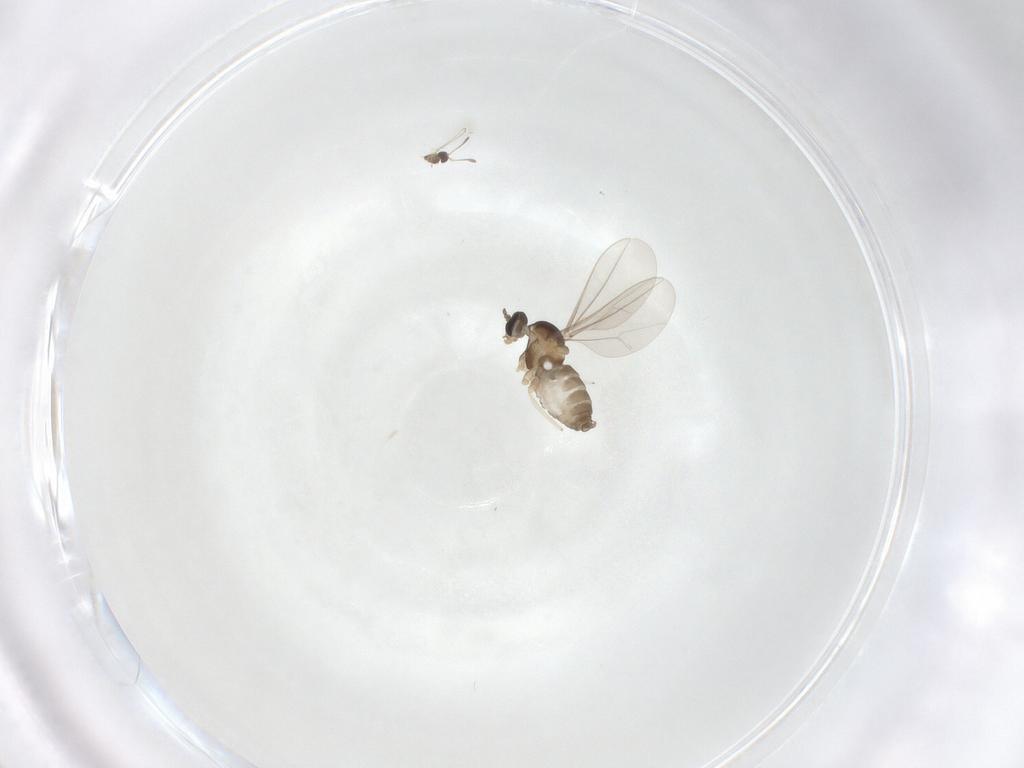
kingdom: Animalia
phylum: Arthropoda
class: Insecta
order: Diptera
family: Cecidomyiidae
